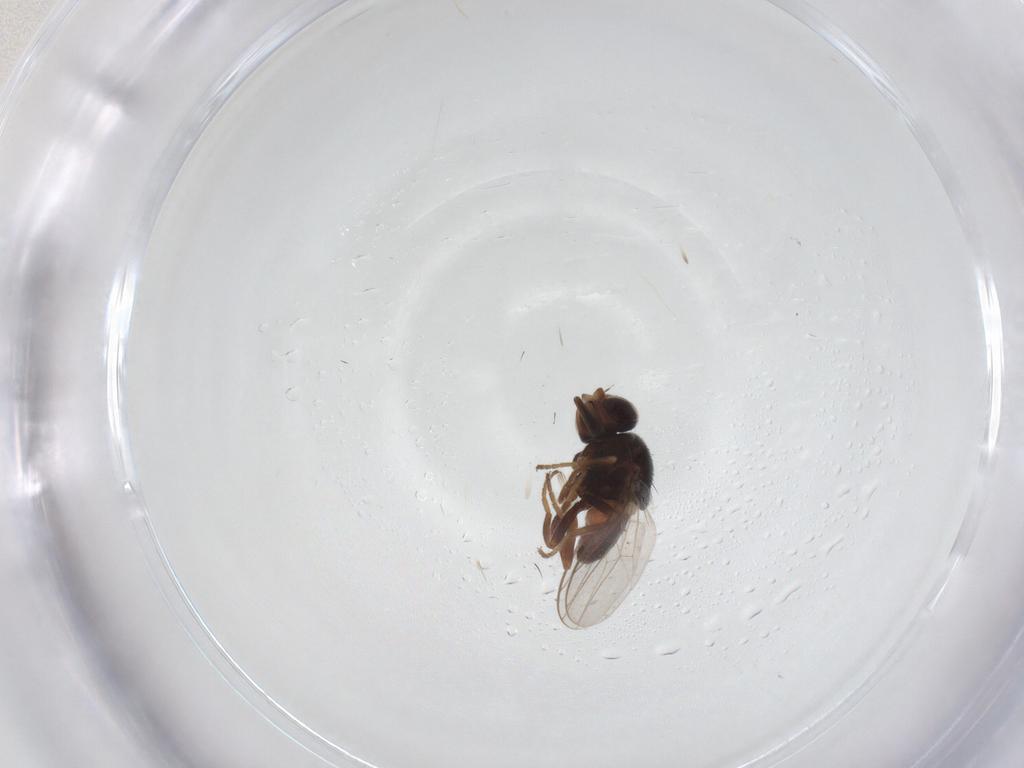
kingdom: Animalia
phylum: Arthropoda
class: Insecta
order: Diptera
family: Chloropidae
